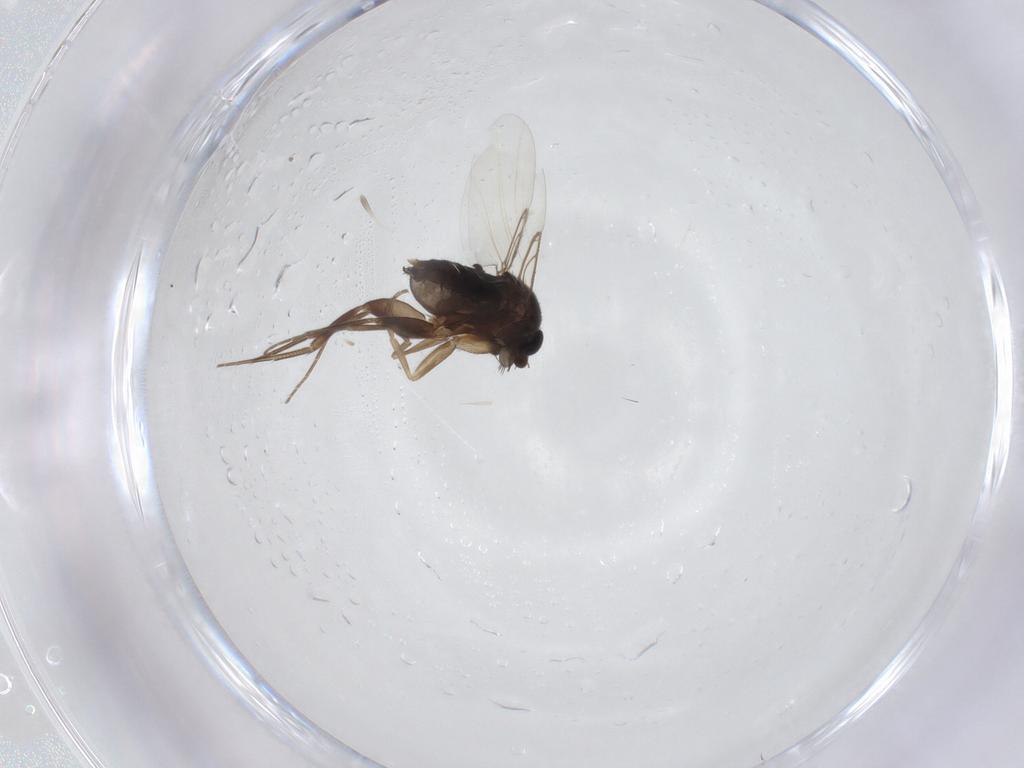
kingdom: Animalia
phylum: Arthropoda
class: Insecta
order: Diptera
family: Phoridae
